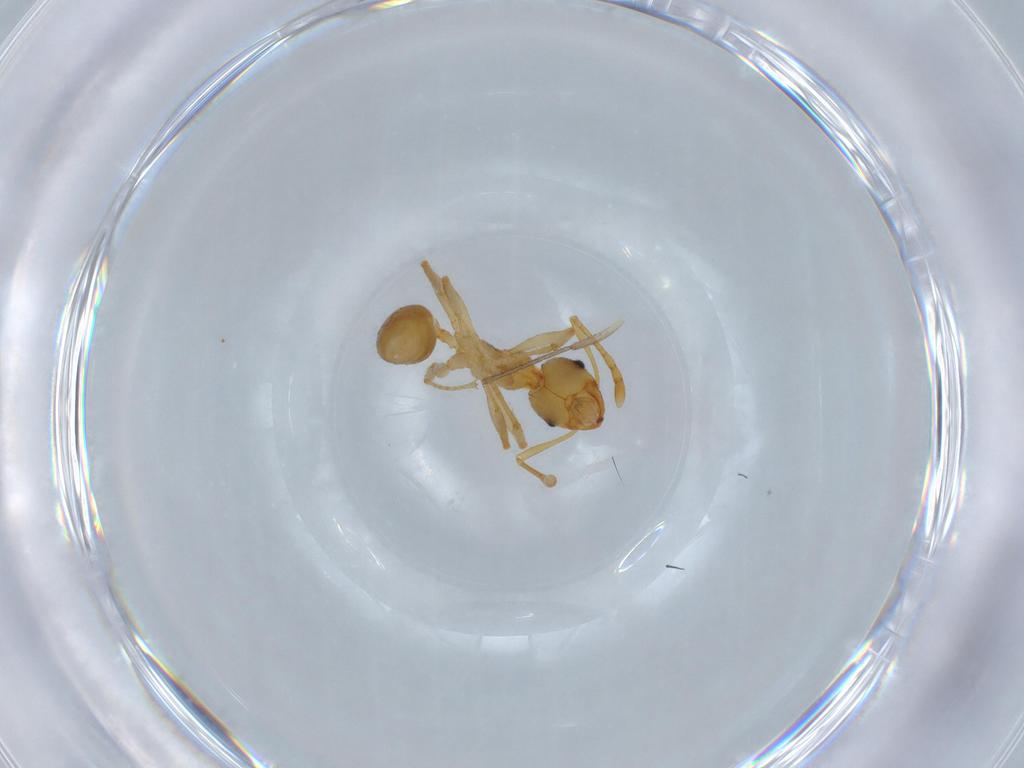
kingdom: Animalia
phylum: Arthropoda
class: Insecta
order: Hymenoptera
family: Formicidae
